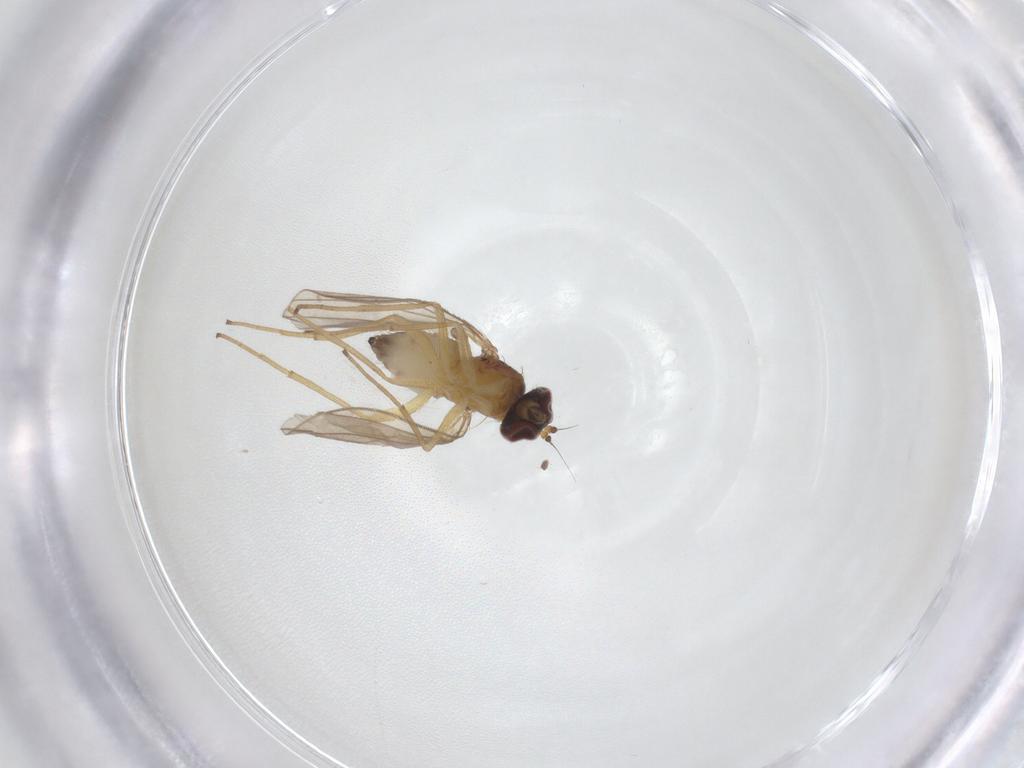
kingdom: Animalia
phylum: Arthropoda
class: Insecta
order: Diptera
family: Dolichopodidae
